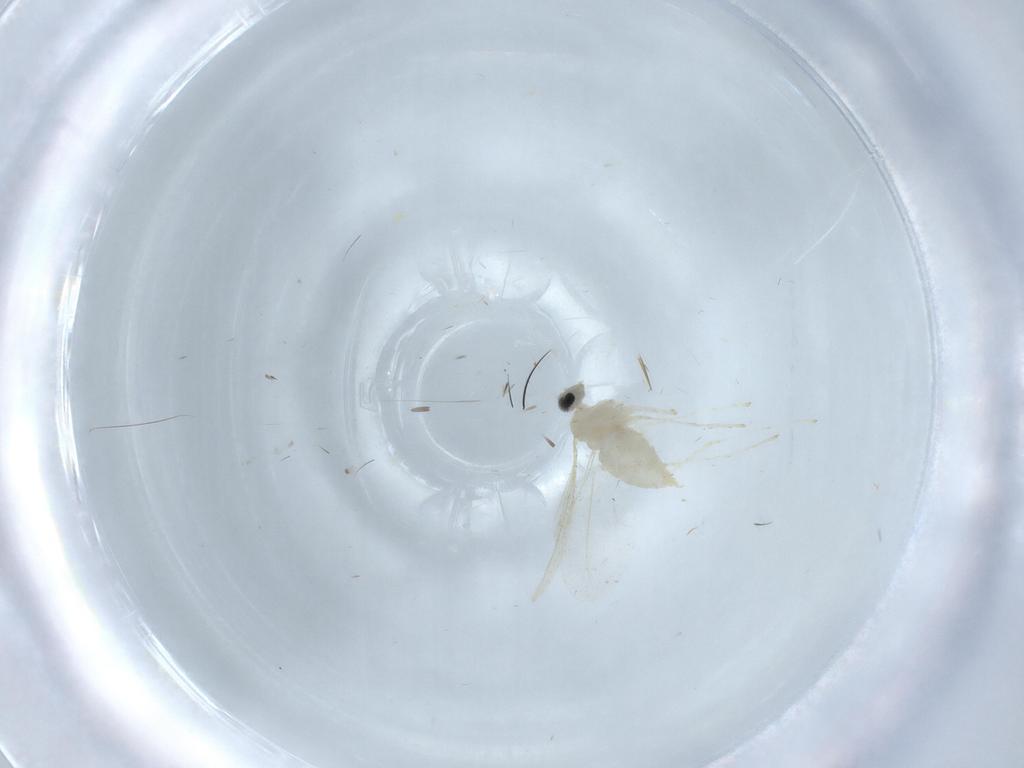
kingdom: Animalia
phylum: Arthropoda
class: Insecta
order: Diptera
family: Cecidomyiidae
